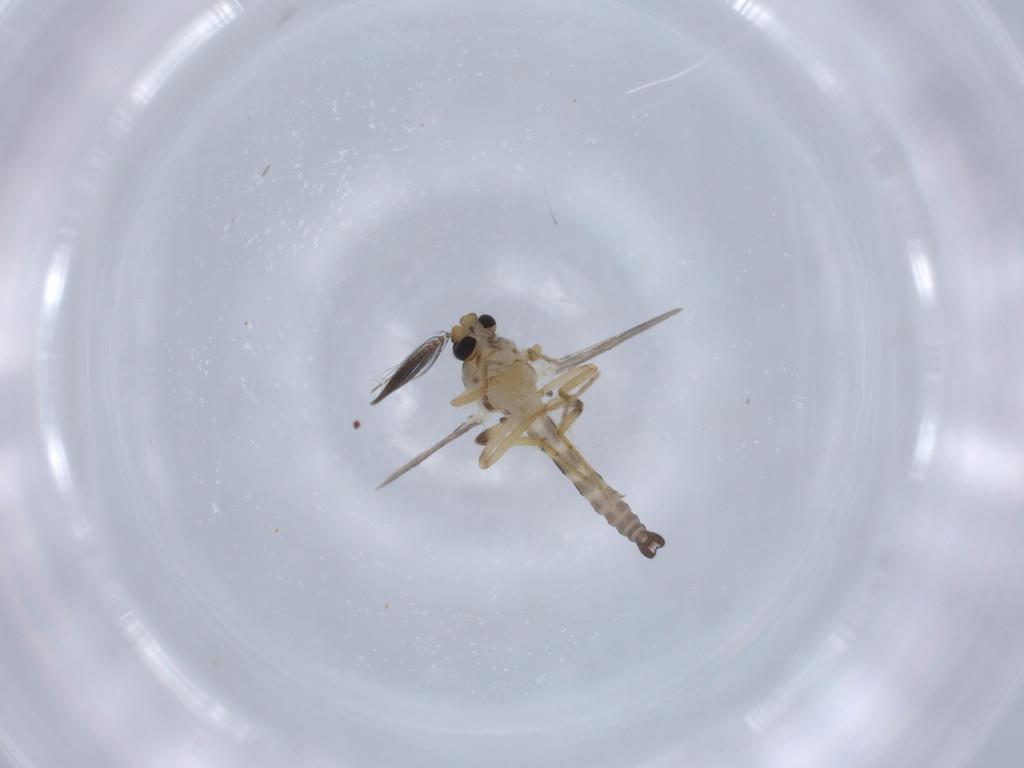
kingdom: Animalia
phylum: Arthropoda
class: Insecta
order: Diptera
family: Ceratopogonidae
